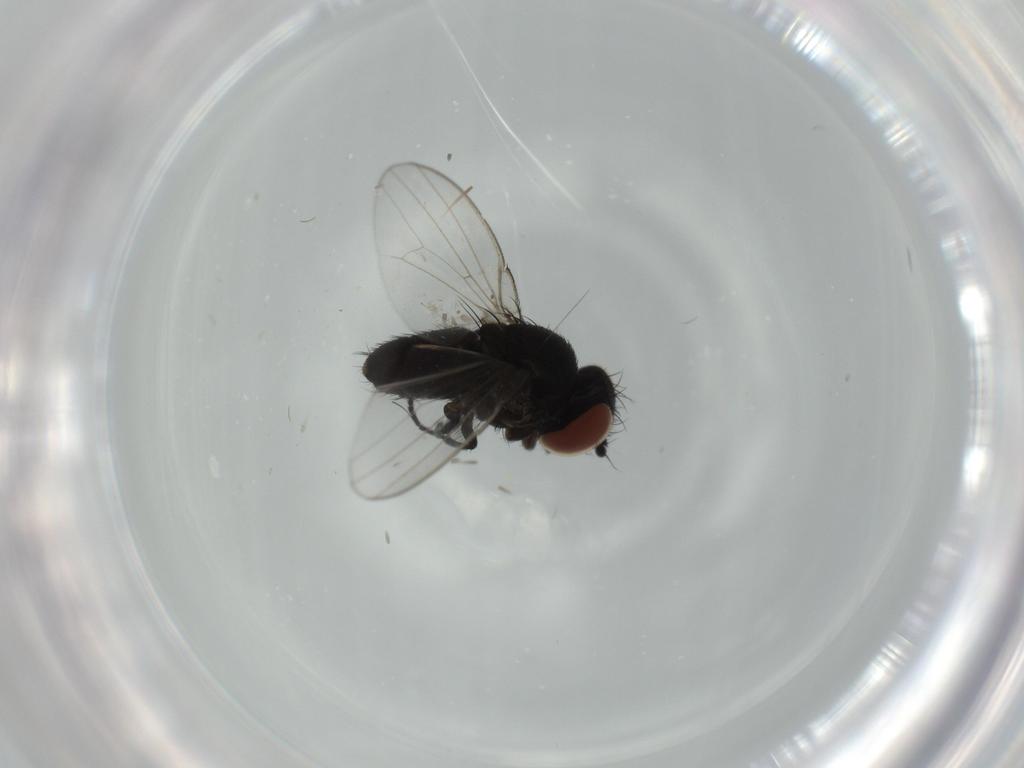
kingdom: Animalia
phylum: Arthropoda
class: Insecta
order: Diptera
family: Milichiidae
